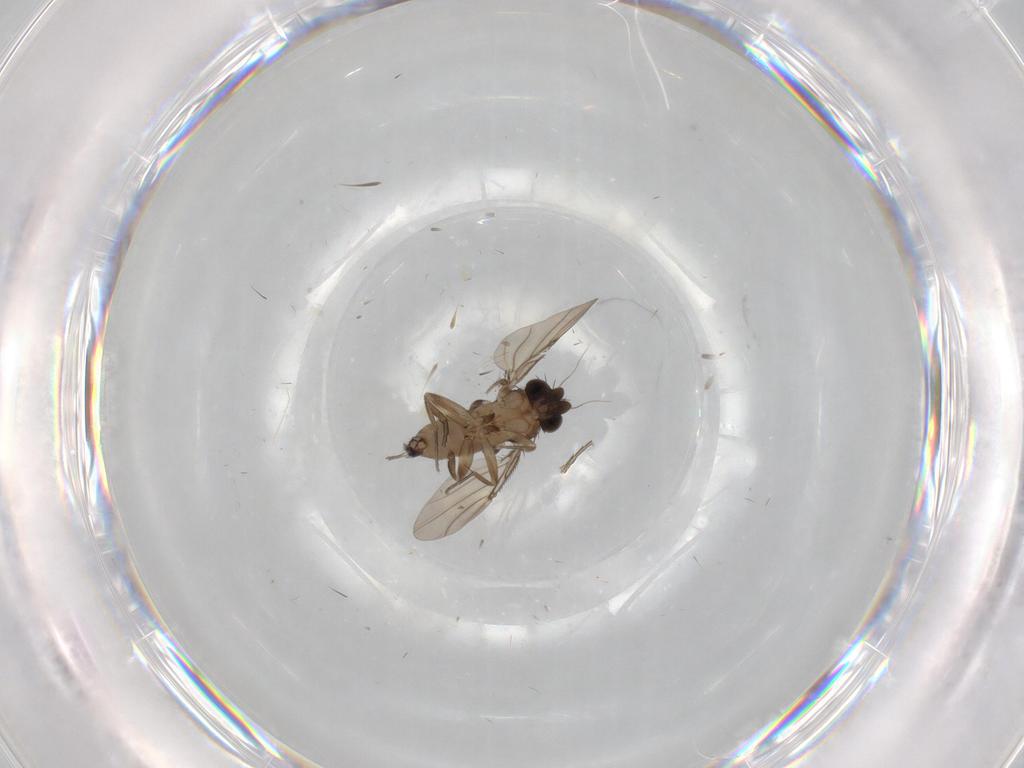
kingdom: Animalia
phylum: Arthropoda
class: Insecta
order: Diptera
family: Phoridae
